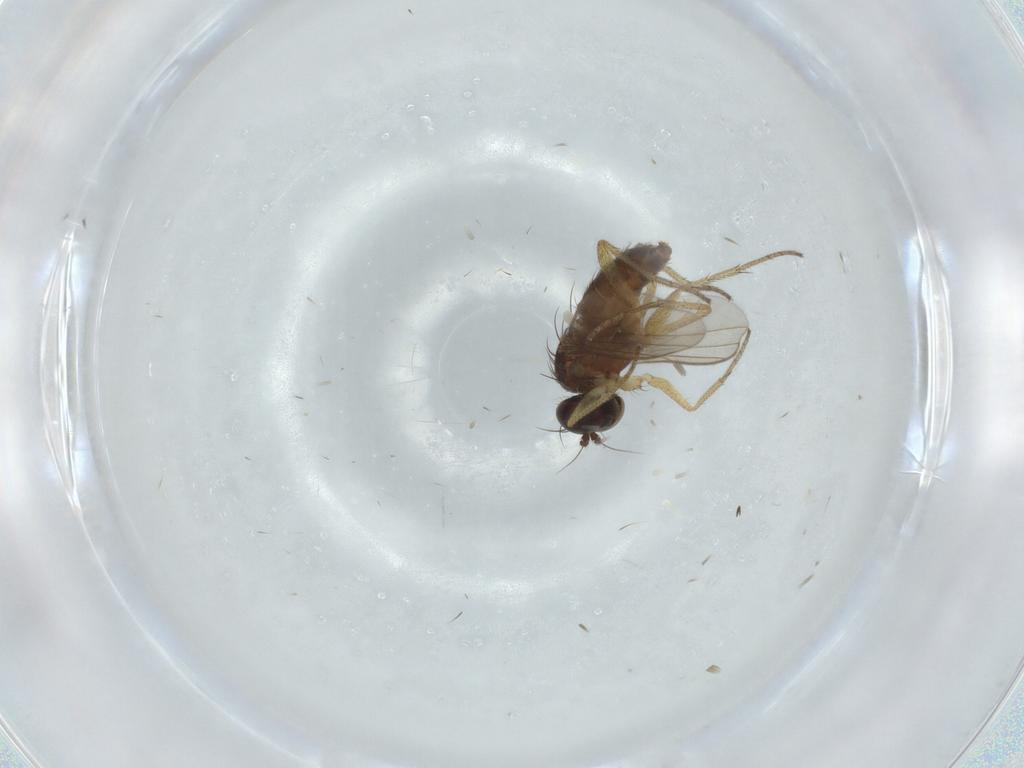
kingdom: Animalia
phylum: Arthropoda
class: Insecta
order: Diptera
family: Dolichopodidae
